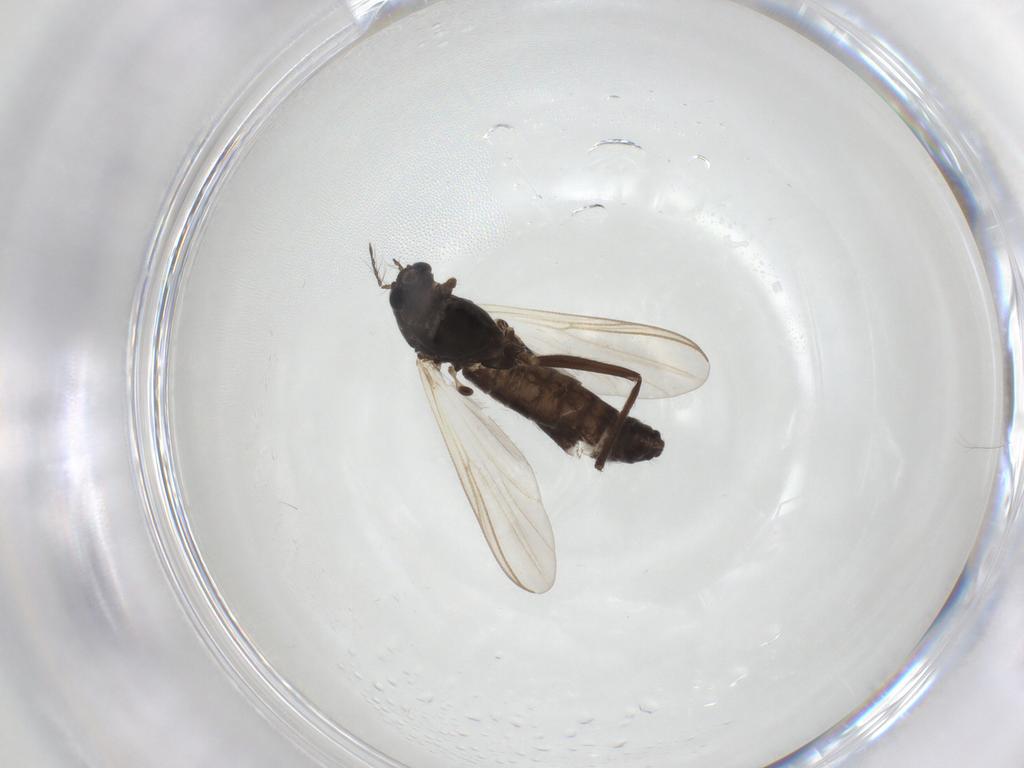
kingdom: Animalia
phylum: Arthropoda
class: Insecta
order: Diptera
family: Chironomidae
